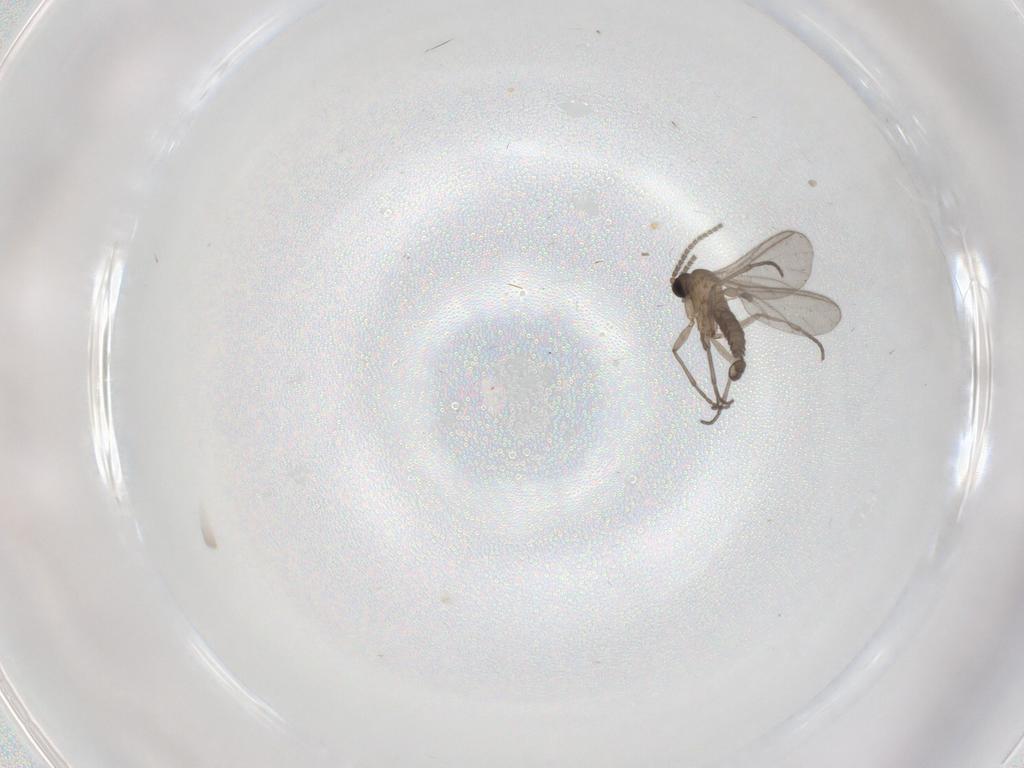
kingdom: Animalia
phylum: Arthropoda
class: Insecta
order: Diptera
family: Sciaridae
